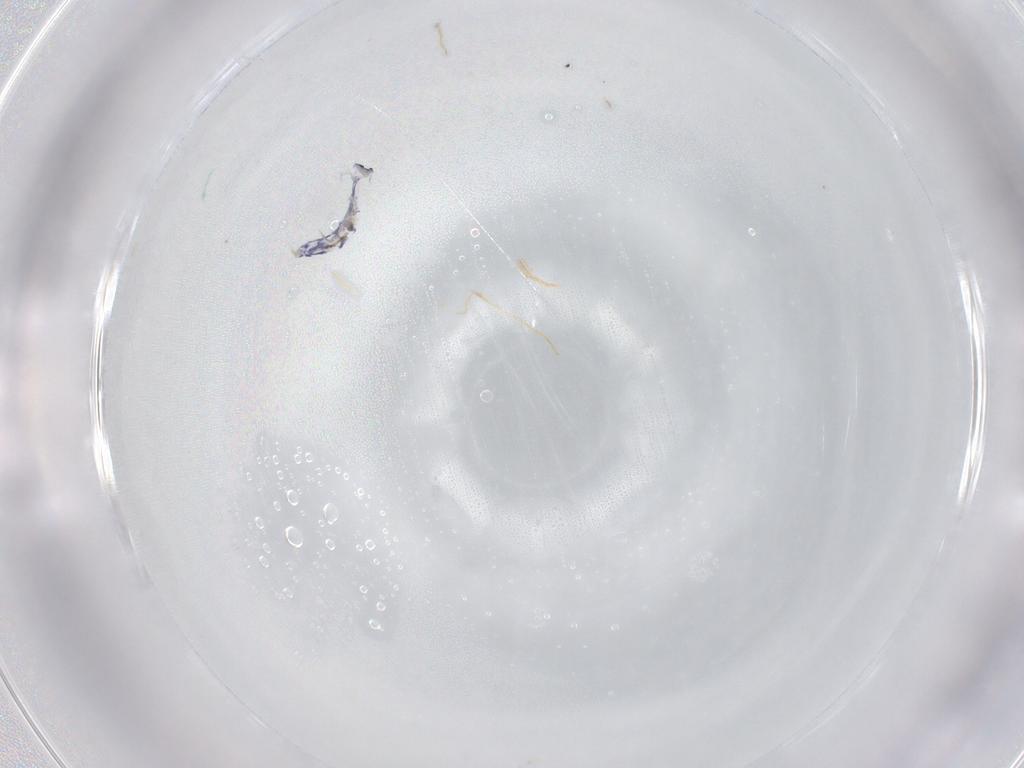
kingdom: Animalia
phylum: Arthropoda
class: Collembola
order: Entomobryomorpha
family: Entomobryidae
